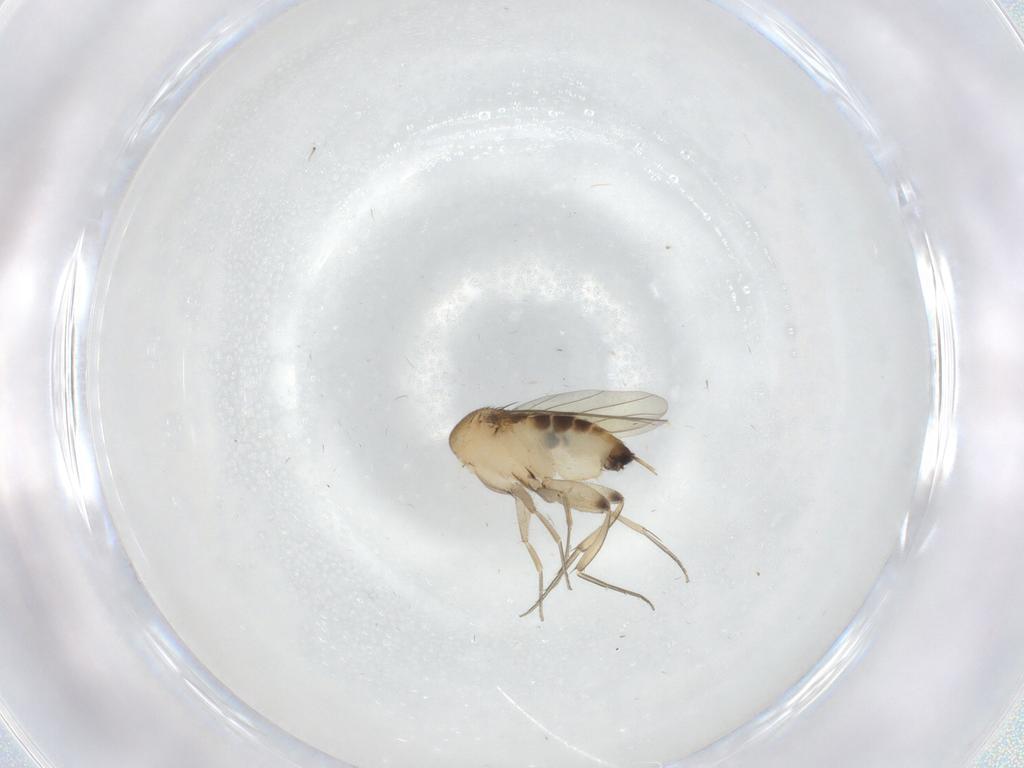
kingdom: Animalia
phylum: Arthropoda
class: Insecta
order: Diptera
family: Phoridae
